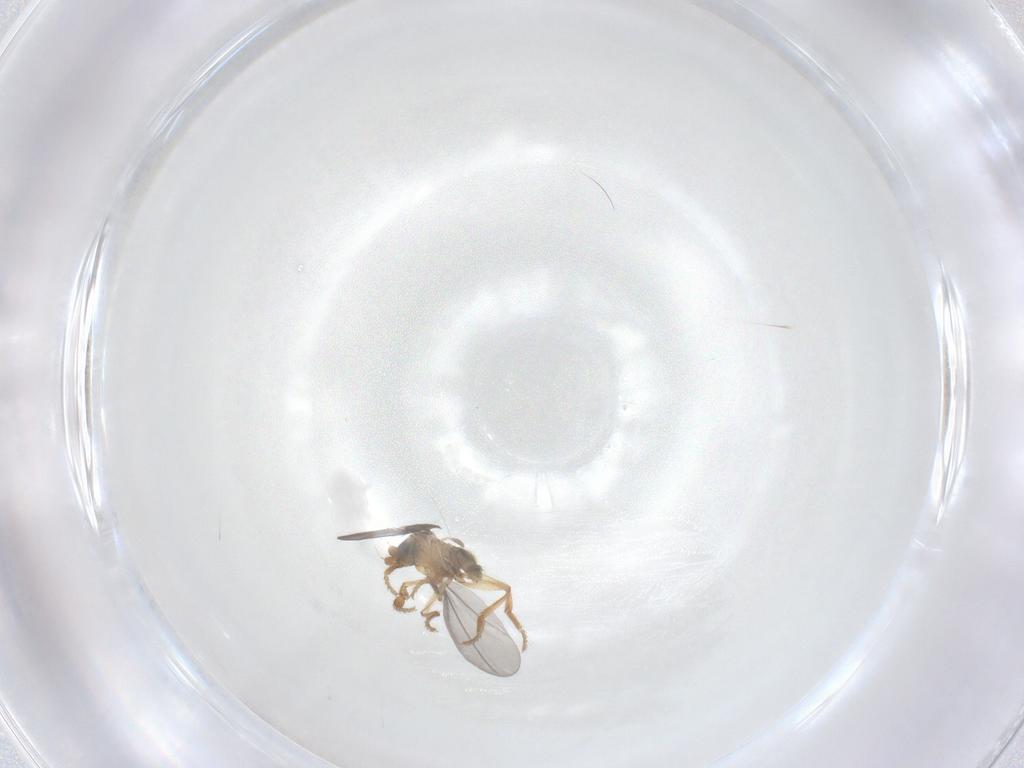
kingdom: Animalia
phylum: Arthropoda
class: Insecta
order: Diptera
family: Phoridae
